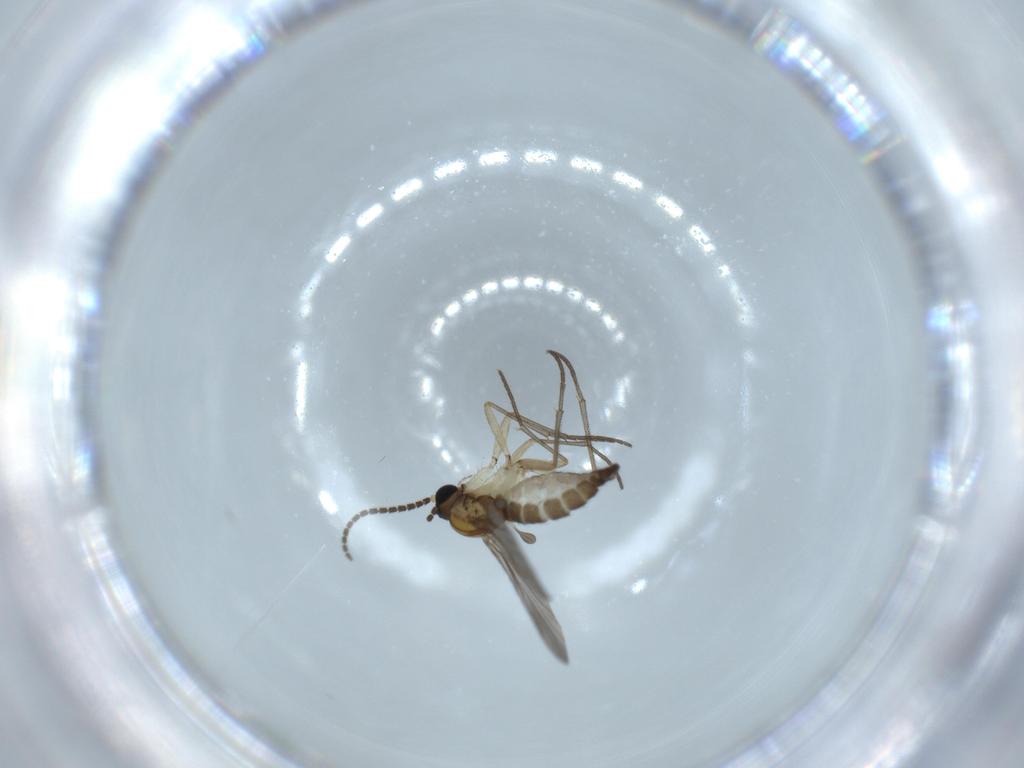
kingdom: Animalia
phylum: Arthropoda
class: Insecta
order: Diptera
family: Sciaridae
